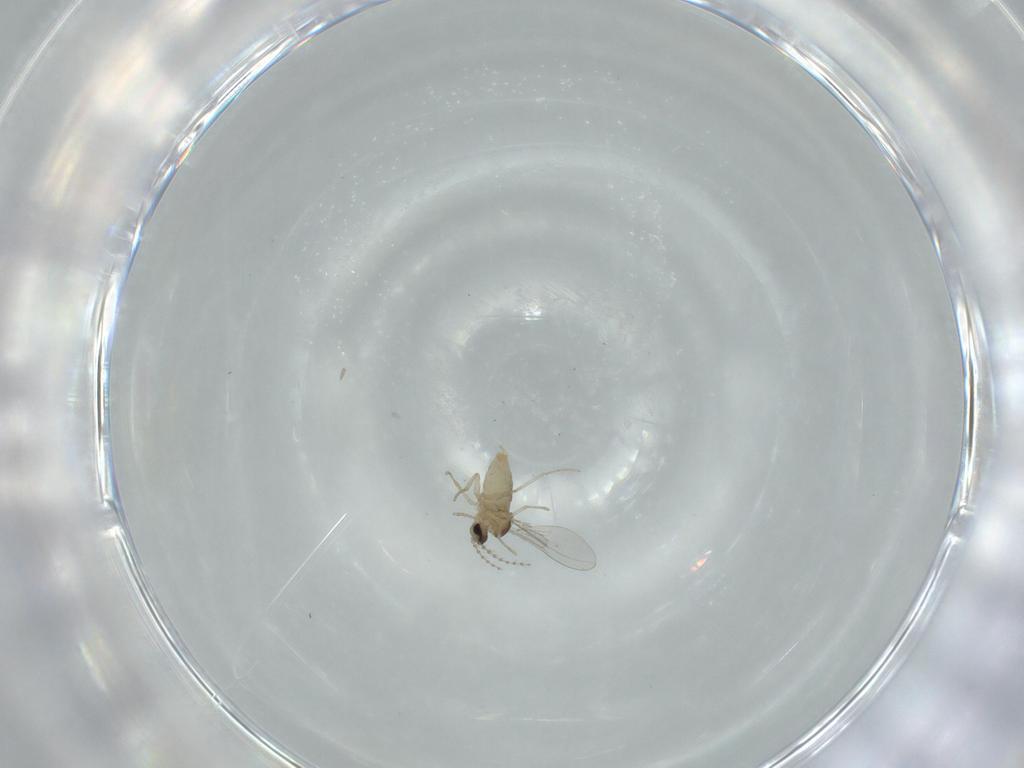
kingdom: Animalia
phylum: Arthropoda
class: Insecta
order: Diptera
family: Cecidomyiidae
